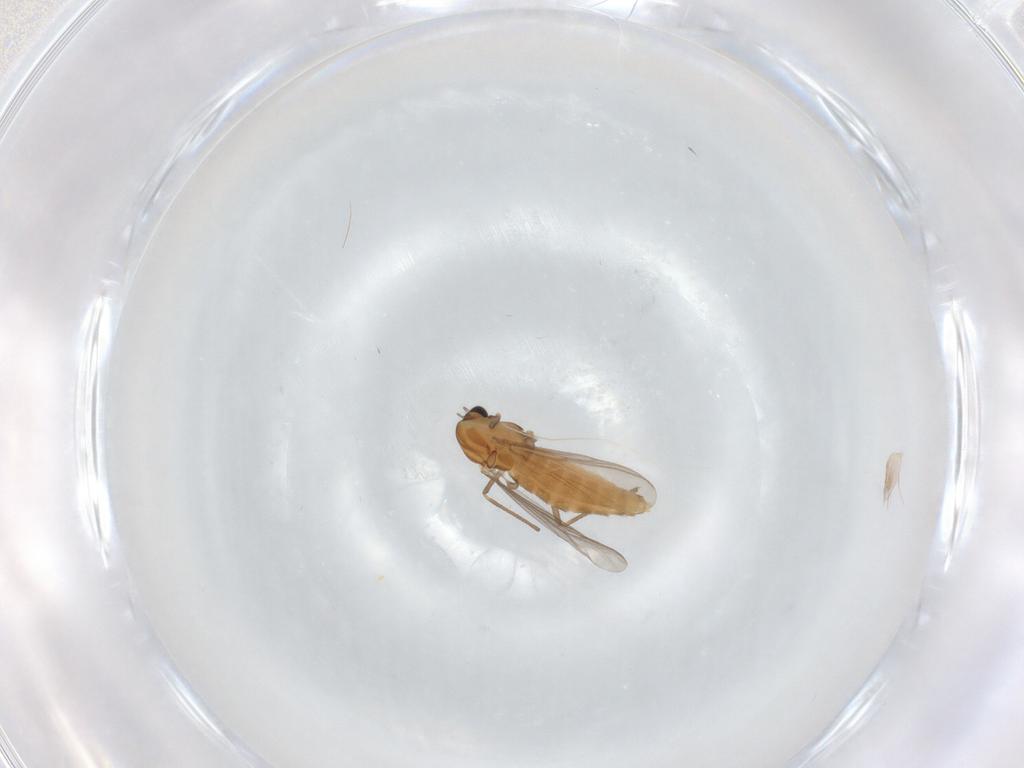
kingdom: Animalia
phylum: Arthropoda
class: Insecta
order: Diptera
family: Chironomidae
